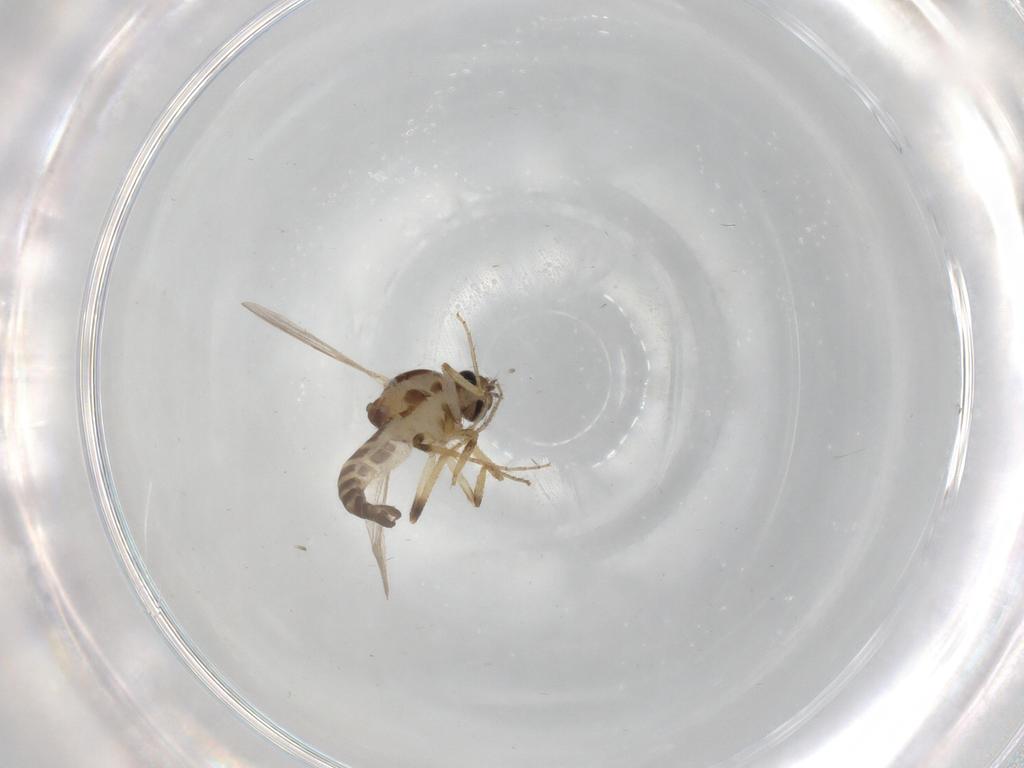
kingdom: Animalia
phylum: Arthropoda
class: Insecta
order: Diptera
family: Ceratopogonidae
